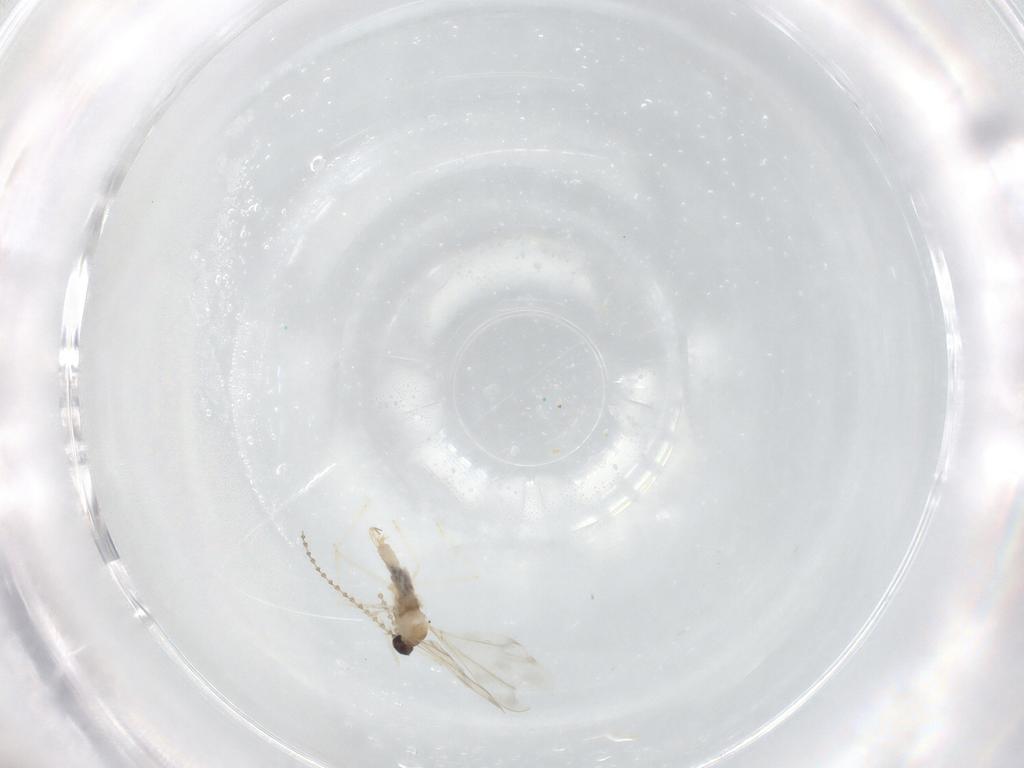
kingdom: Animalia
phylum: Arthropoda
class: Insecta
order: Diptera
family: Cecidomyiidae
